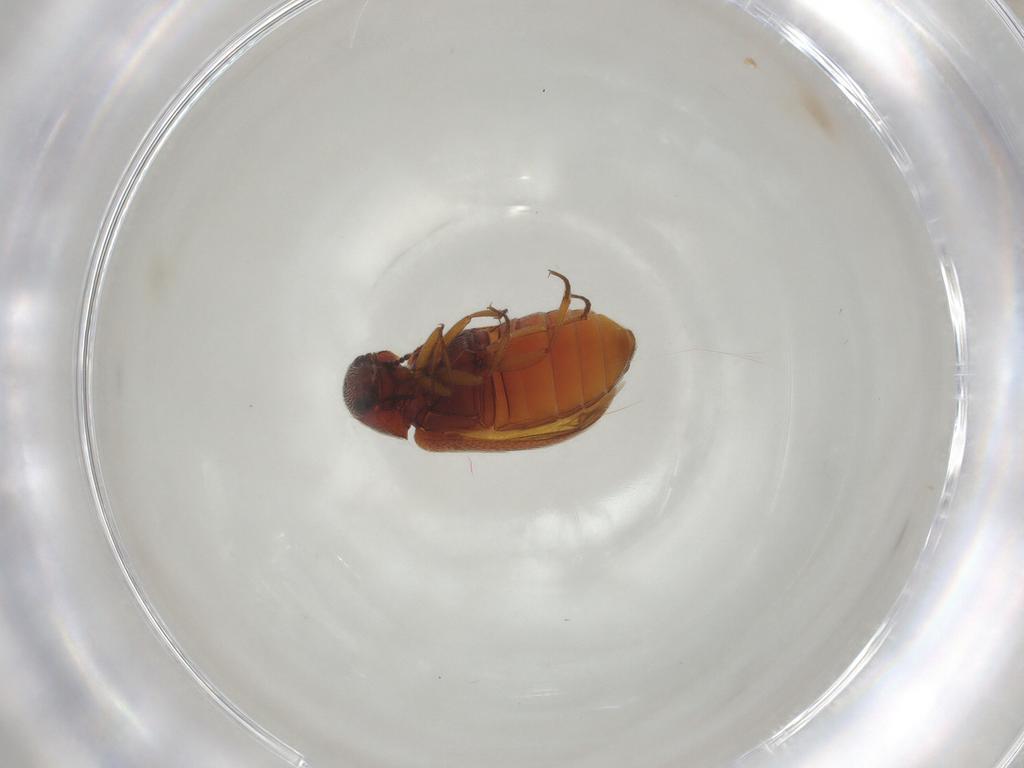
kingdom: Animalia
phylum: Arthropoda
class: Insecta
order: Coleoptera
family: Rhadalidae
